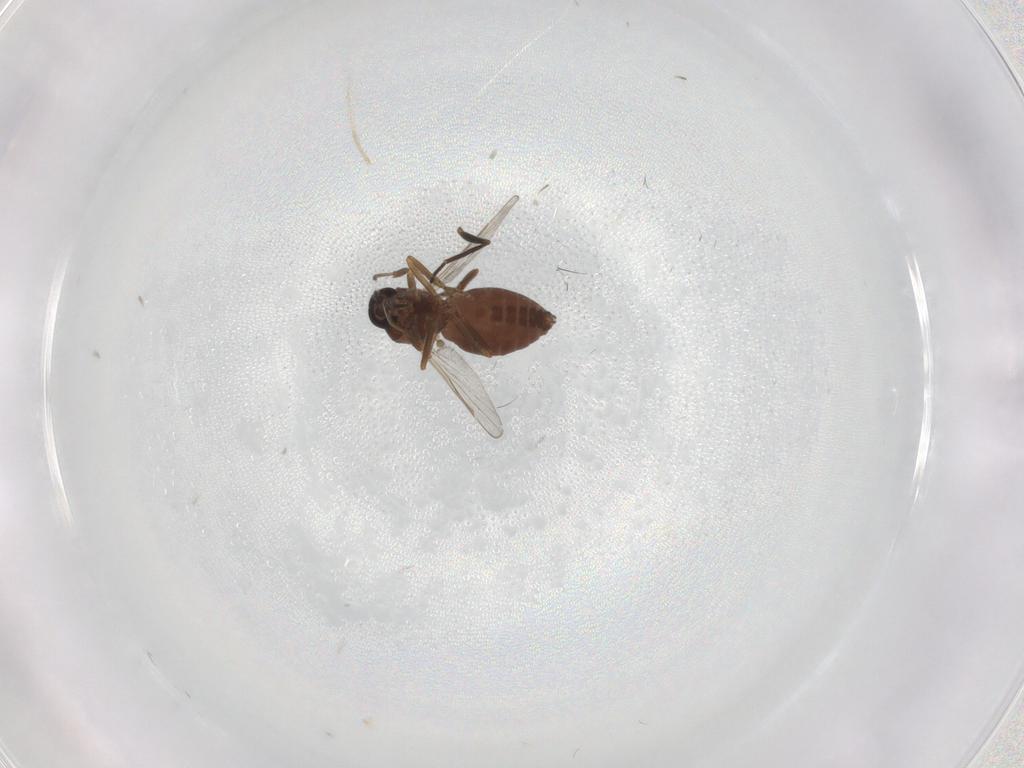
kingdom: Animalia
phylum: Arthropoda
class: Insecta
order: Diptera
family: Ceratopogonidae
